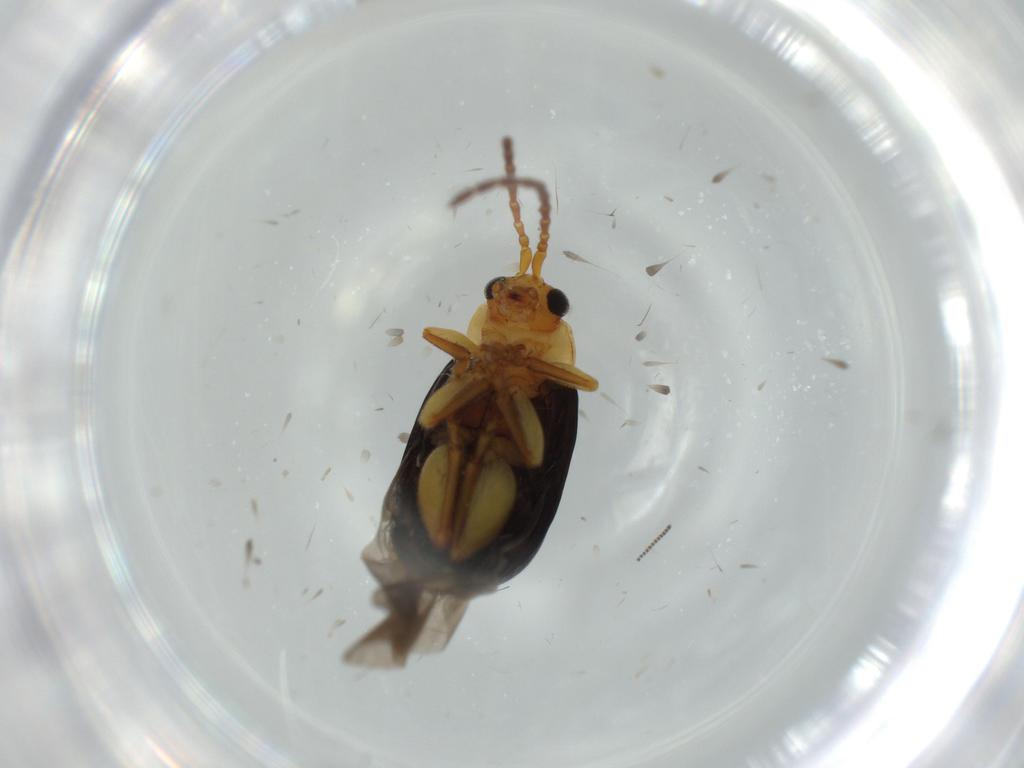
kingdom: Animalia
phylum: Arthropoda
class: Insecta
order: Coleoptera
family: Chrysomelidae
